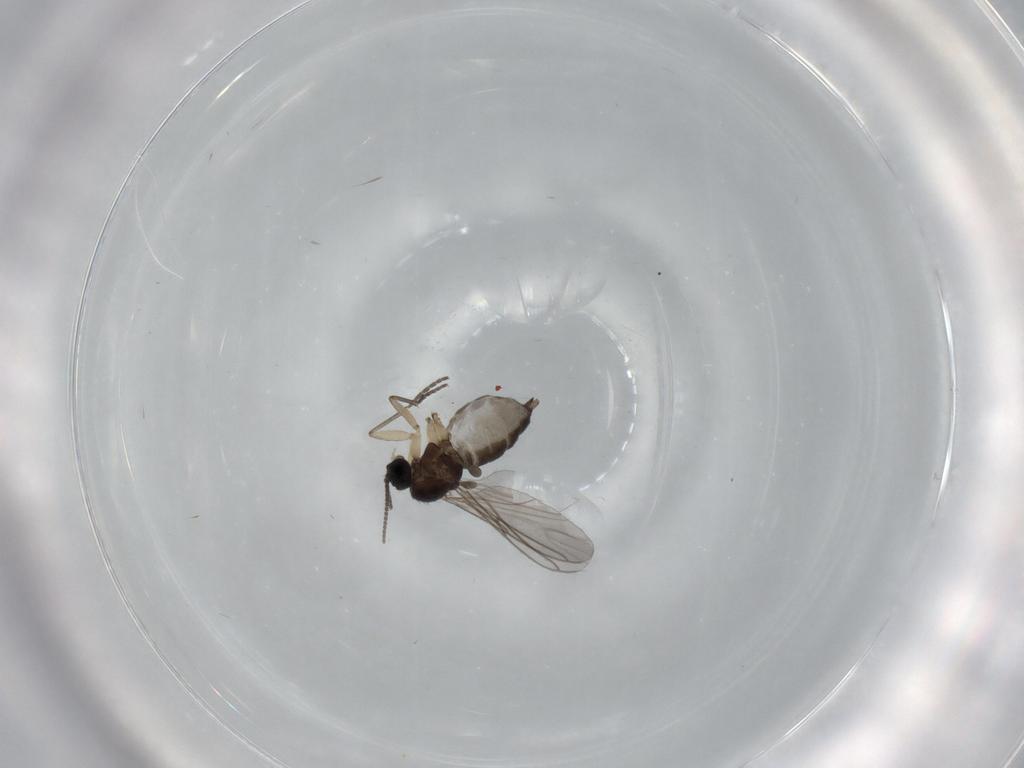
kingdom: Animalia
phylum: Arthropoda
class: Insecta
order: Diptera
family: Sciaridae
